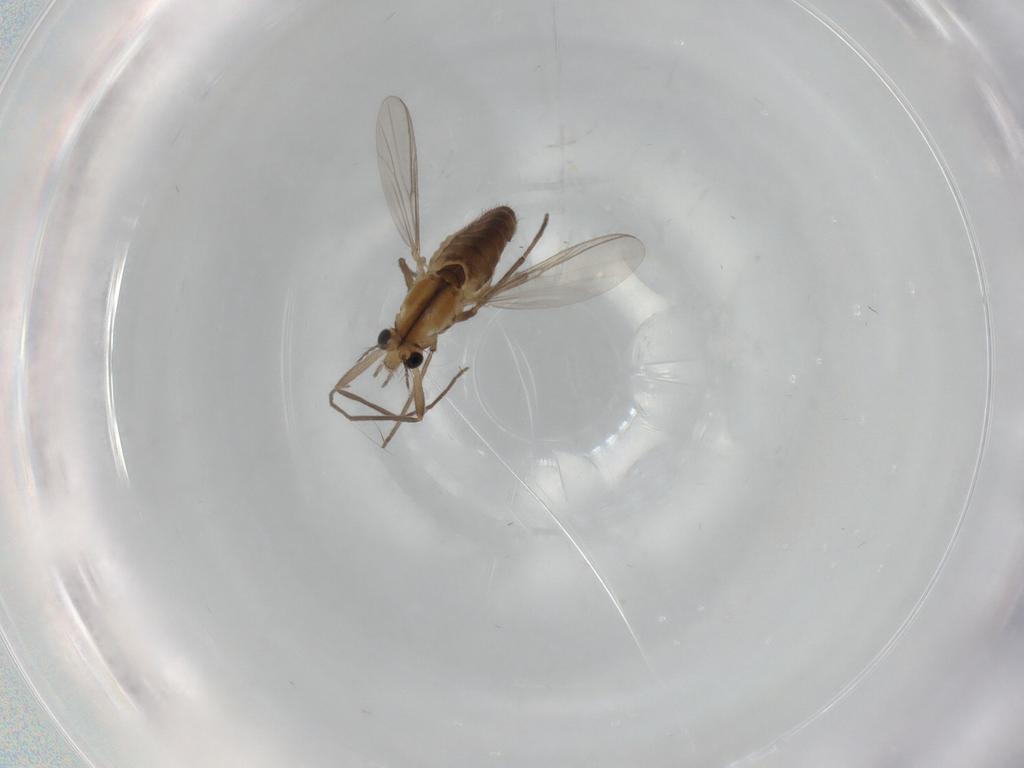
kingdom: Animalia
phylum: Arthropoda
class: Insecta
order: Diptera
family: Chironomidae
